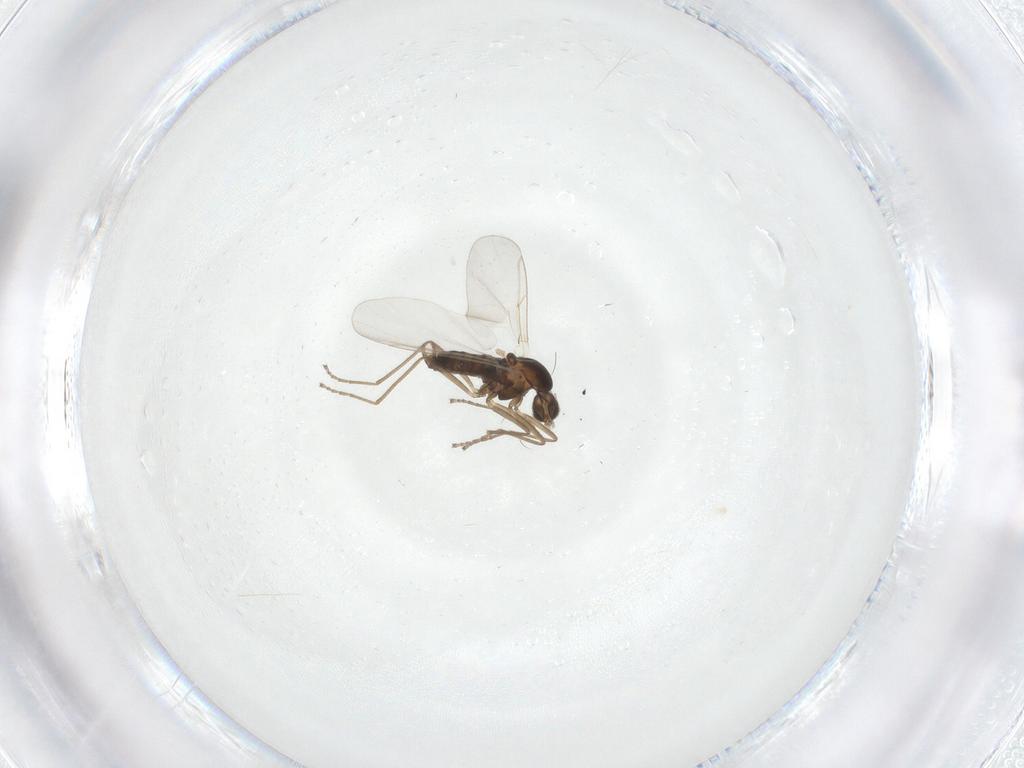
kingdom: Animalia
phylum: Arthropoda
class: Insecta
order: Diptera
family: Cecidomyiidae
